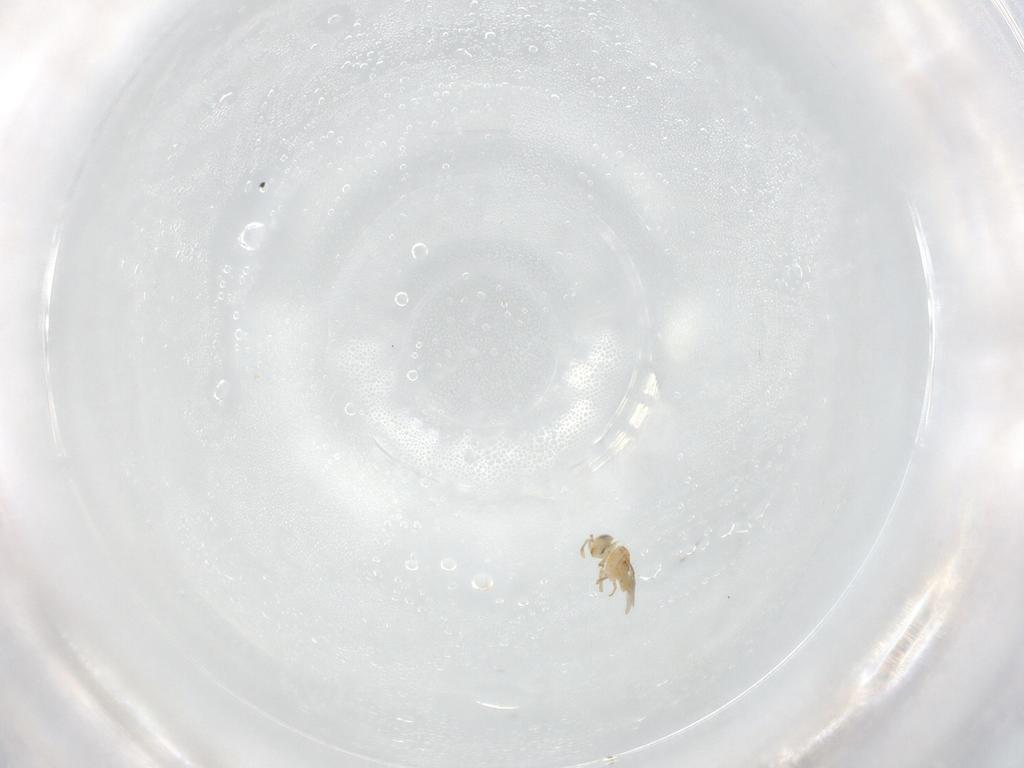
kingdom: Animalia
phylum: Arthropoda
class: Insecta
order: Hymenoptera
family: Encyrtidae
